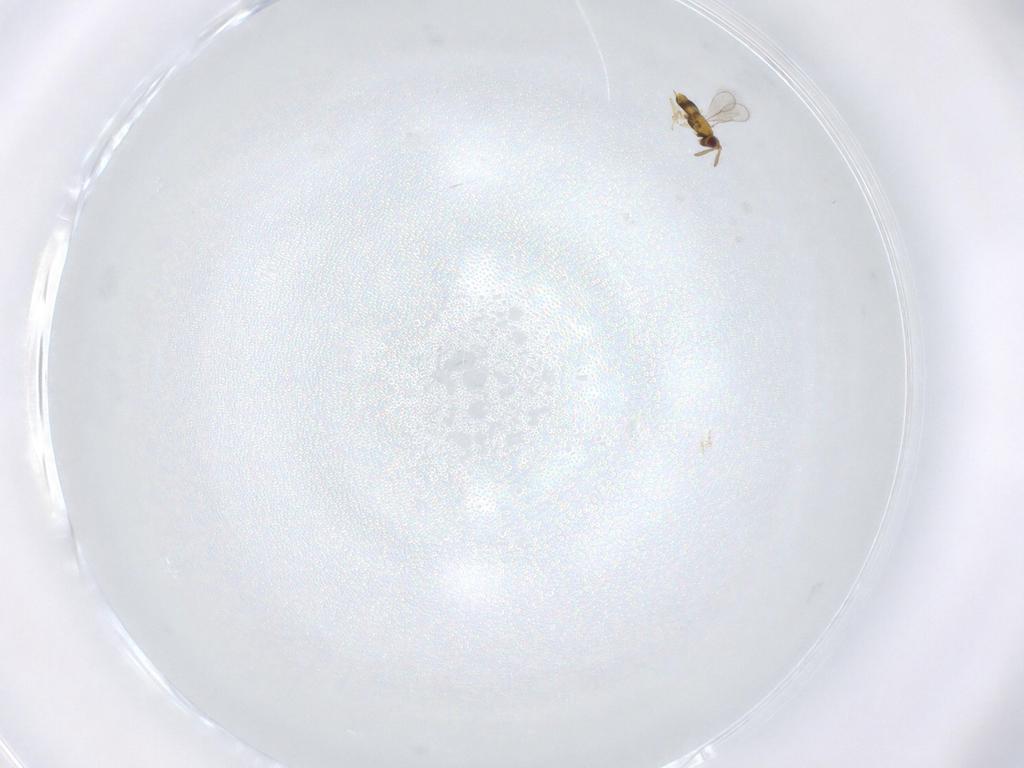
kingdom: Animalia
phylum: Arthropoda
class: Insecta
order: Hymenoptera
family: Aphelinidae
